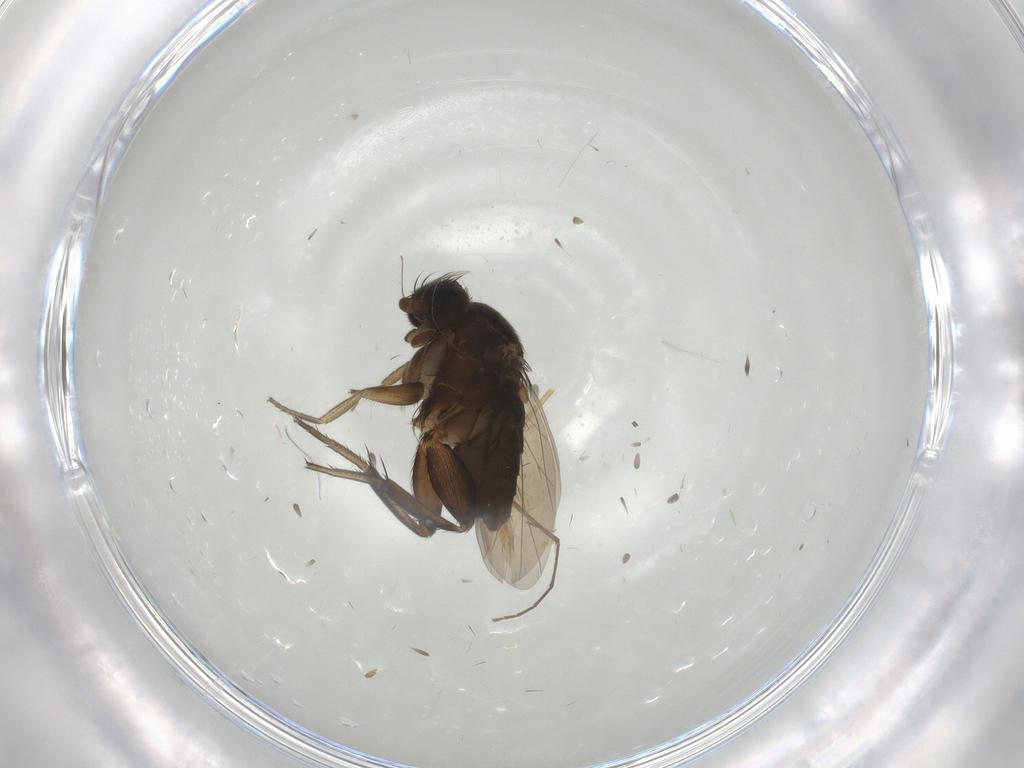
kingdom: Animalia
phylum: Arthropoda
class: Insecta
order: Diptera
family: Phoridae
